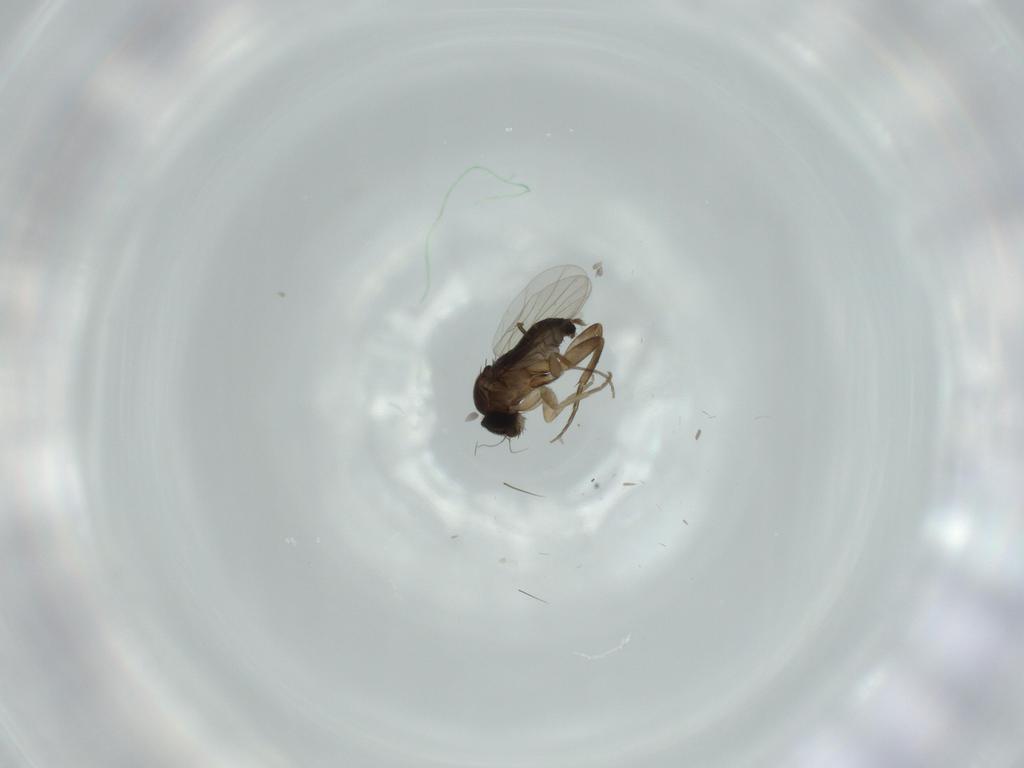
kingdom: Animalia
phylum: Arthropoda
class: Insecta
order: Diptera
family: Phoridae
